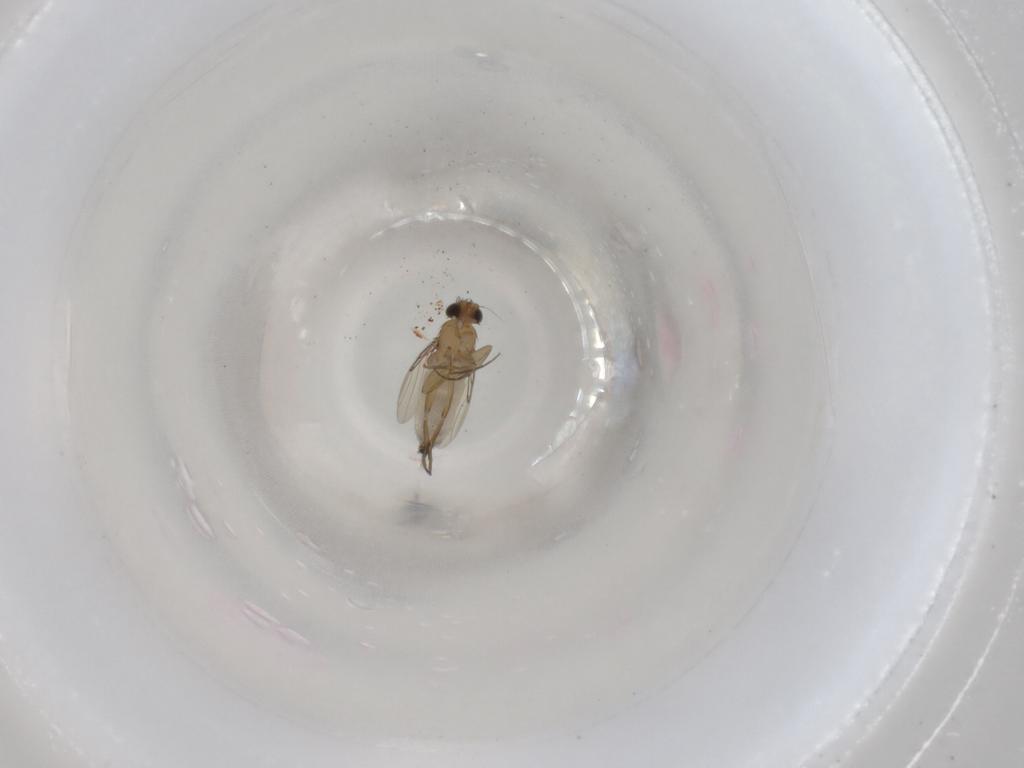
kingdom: Animalia
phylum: Arthropoda
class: Insecta
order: Diptera
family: Phoridae
